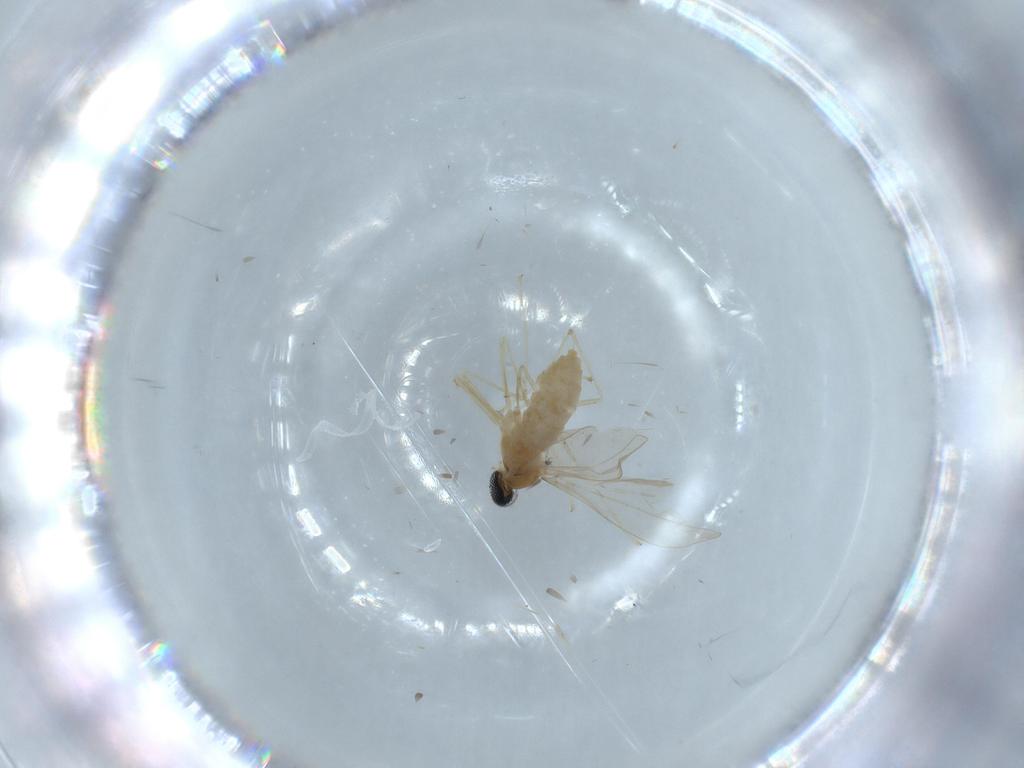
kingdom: Animalia
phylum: Arthropoda
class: Insecta
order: Diptera
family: Cecidomyiidae
